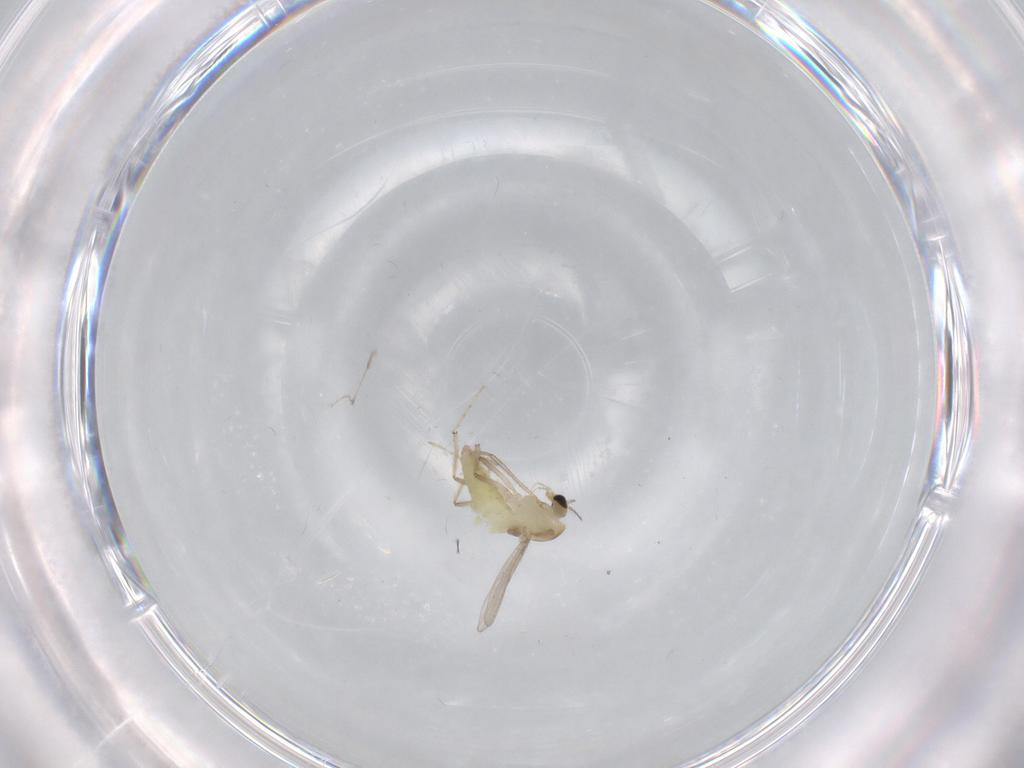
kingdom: Animalia
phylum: Arthropoda
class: Insecta
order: Diptera
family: Chironomidae
